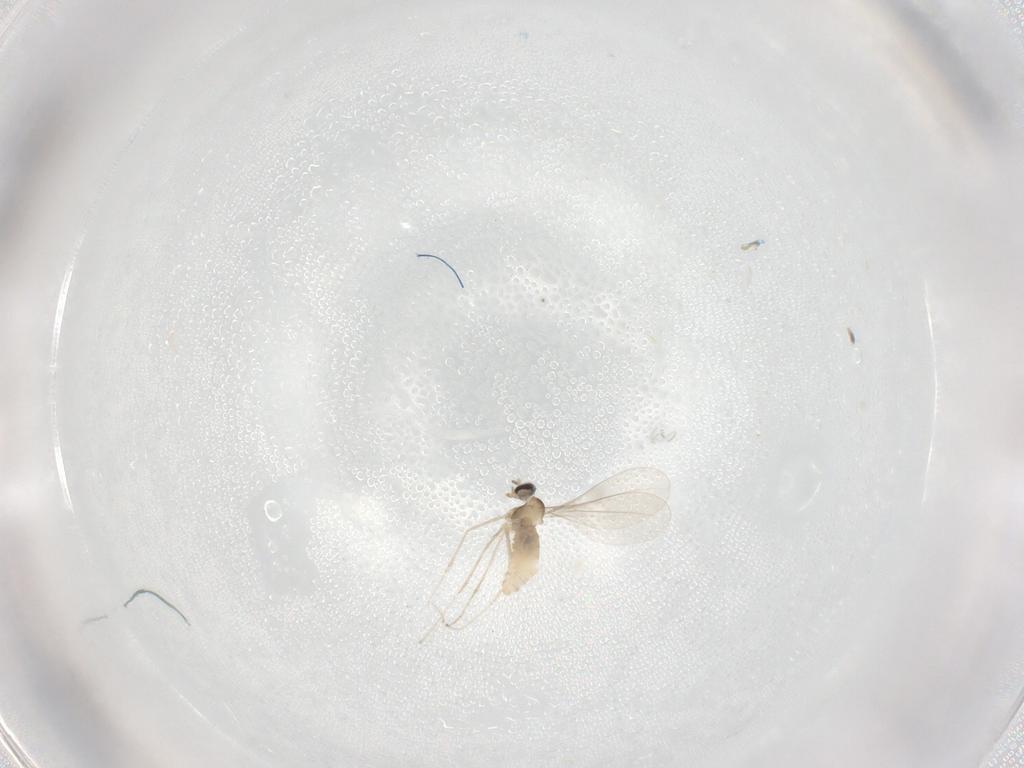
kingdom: Animalia
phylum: Arthropoda
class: Insecta
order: Diptera
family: Cecidomyiidae
